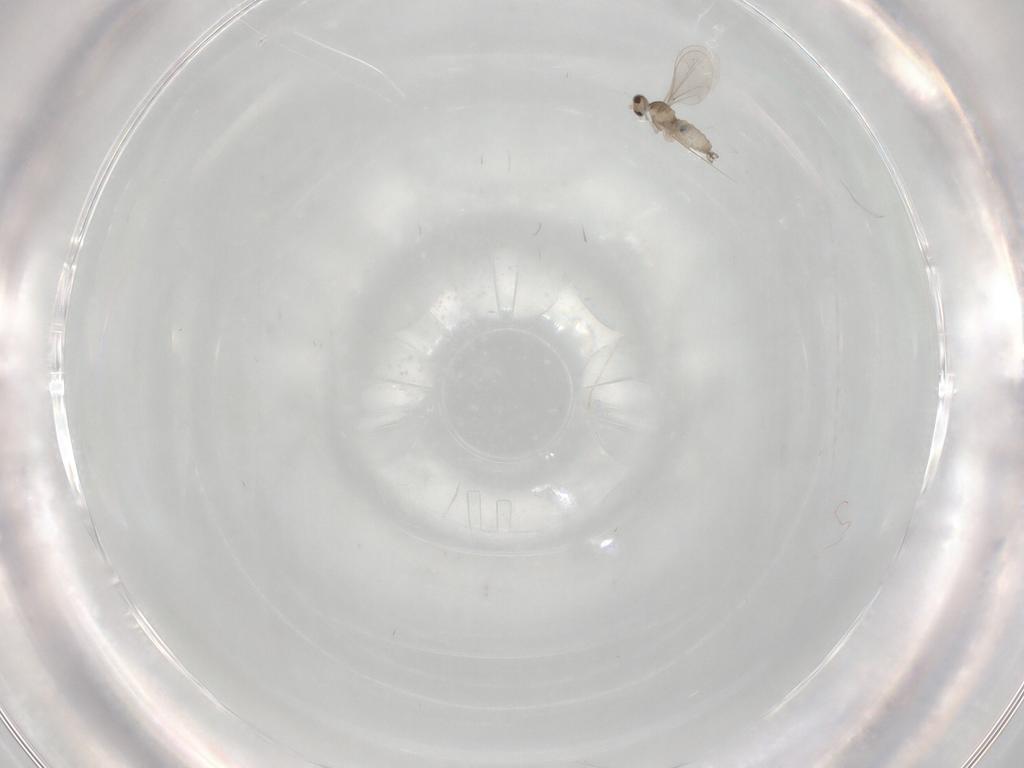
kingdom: Animalia
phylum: Arthropoda
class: Insecta
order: Diptera
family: Cecidomyiidae
